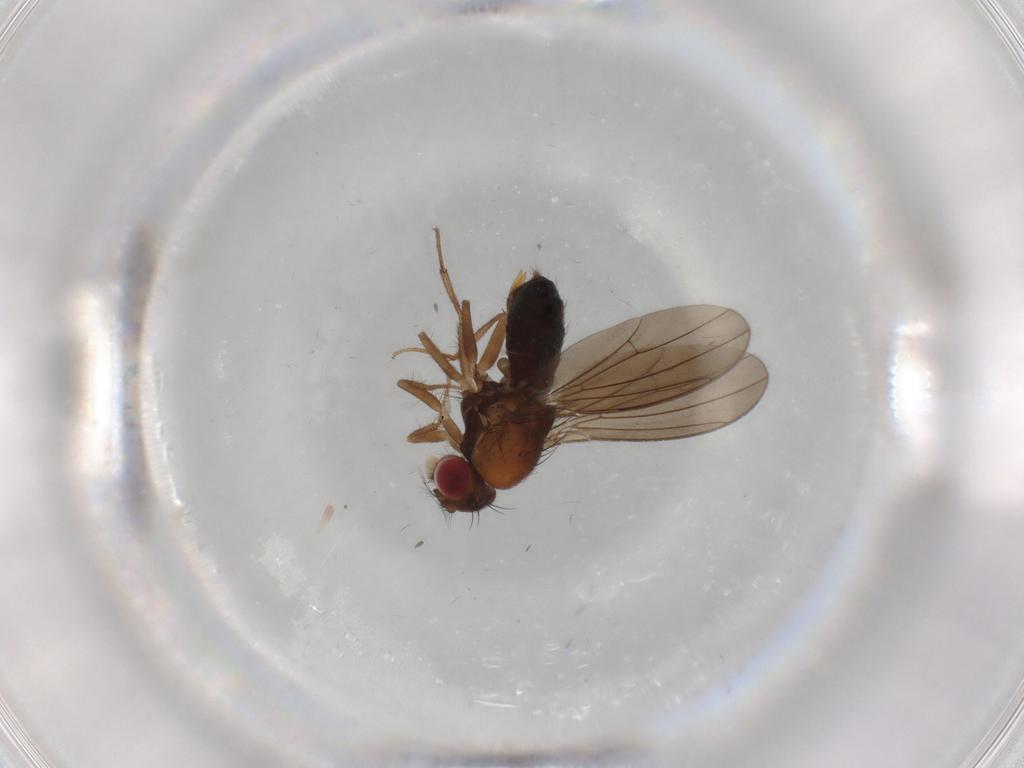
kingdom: Animalia
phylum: Arthropoda
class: Insecta
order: Diptera
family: Drosophilidae
